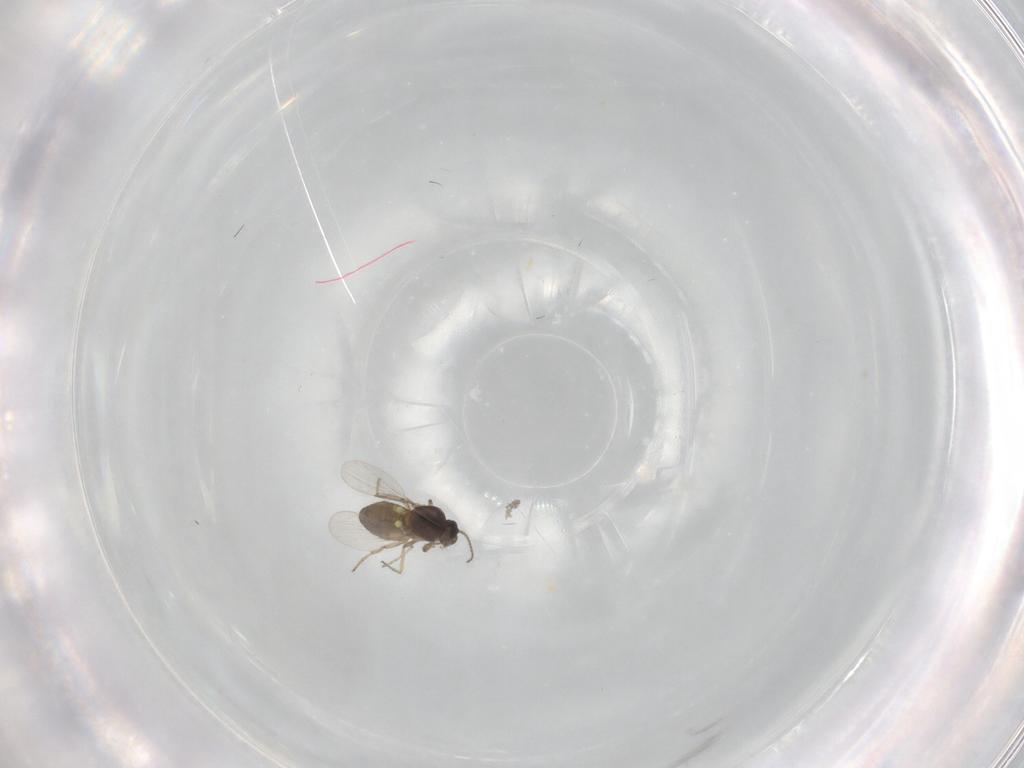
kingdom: Animalia
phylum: Arthropoda
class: Insecta
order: Diptera
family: Ceratopogonidae
